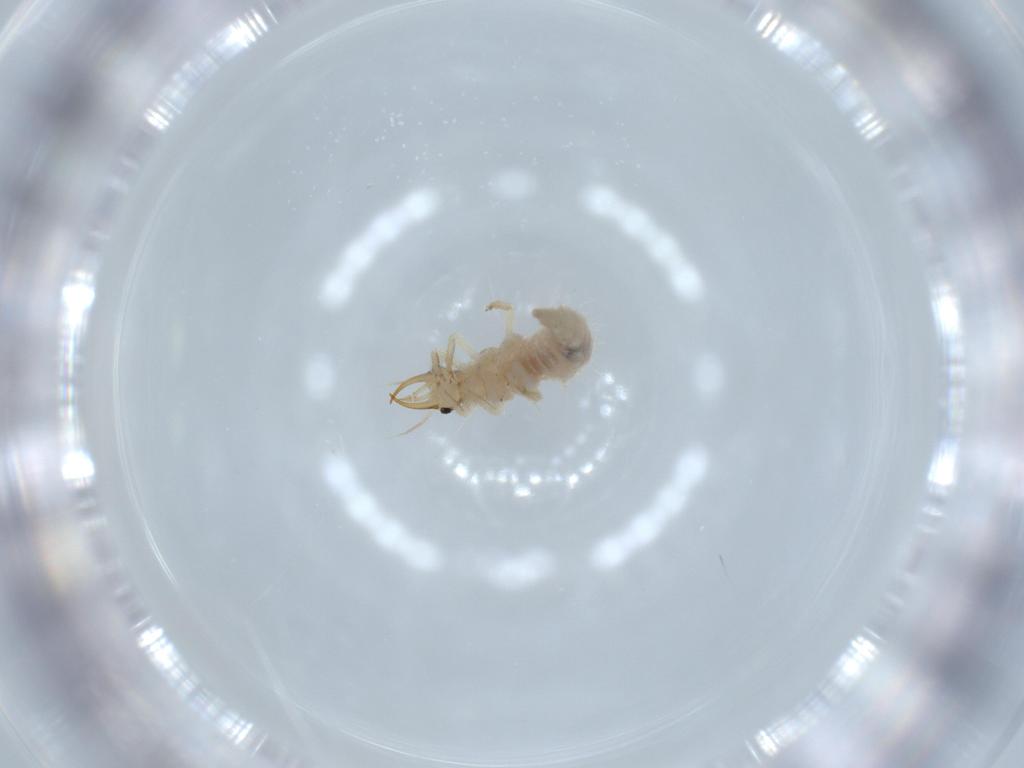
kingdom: Animalia
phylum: Arthropoda
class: Insecta
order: Neuroptera
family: Chrysopidae
